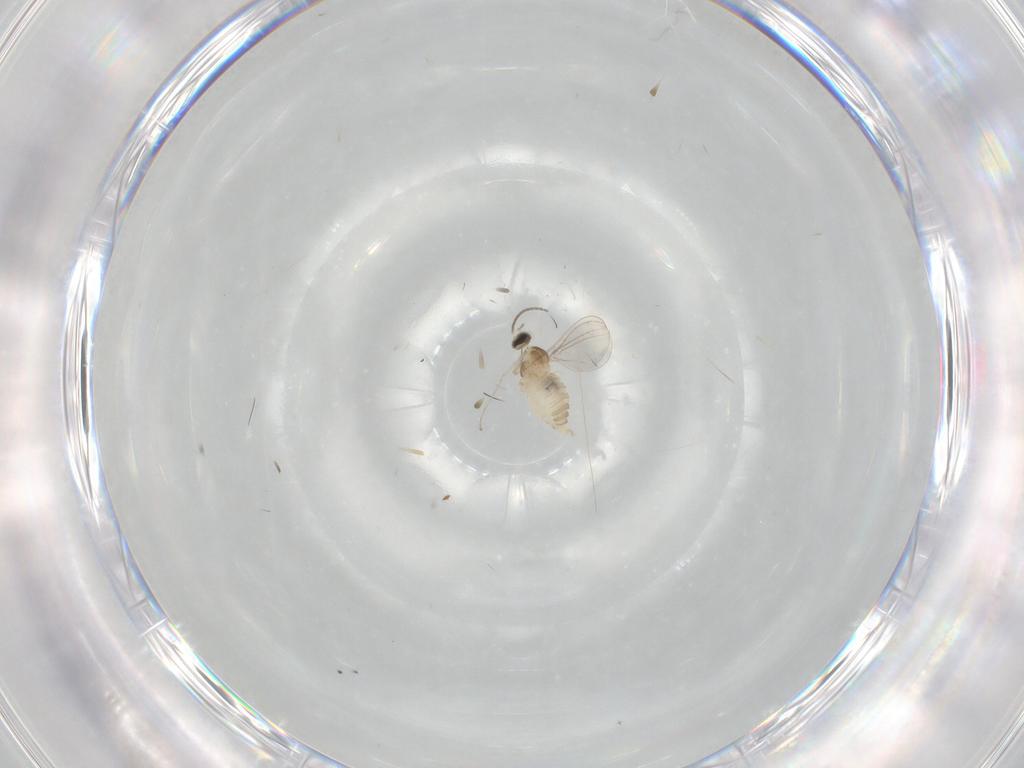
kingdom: Animalia
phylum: Arthropoda
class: Insecta
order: Diptera
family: Cecidomyiidae
